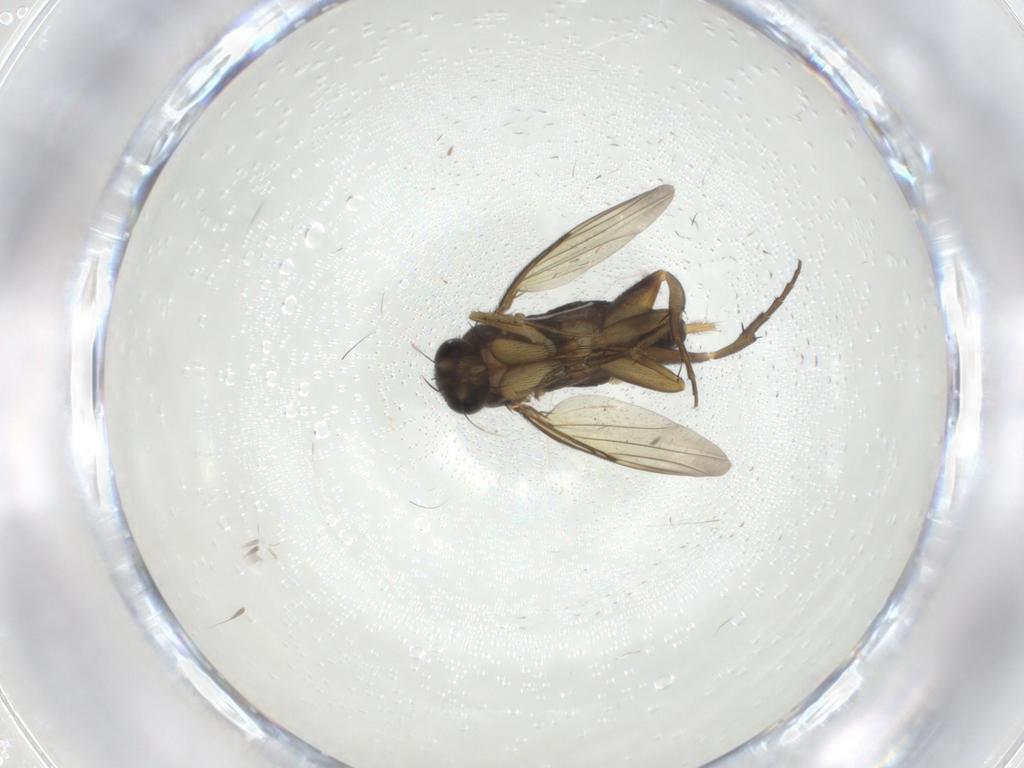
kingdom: Animalia
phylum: Arthropoda
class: Insecta
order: Diptera
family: Phoridae
